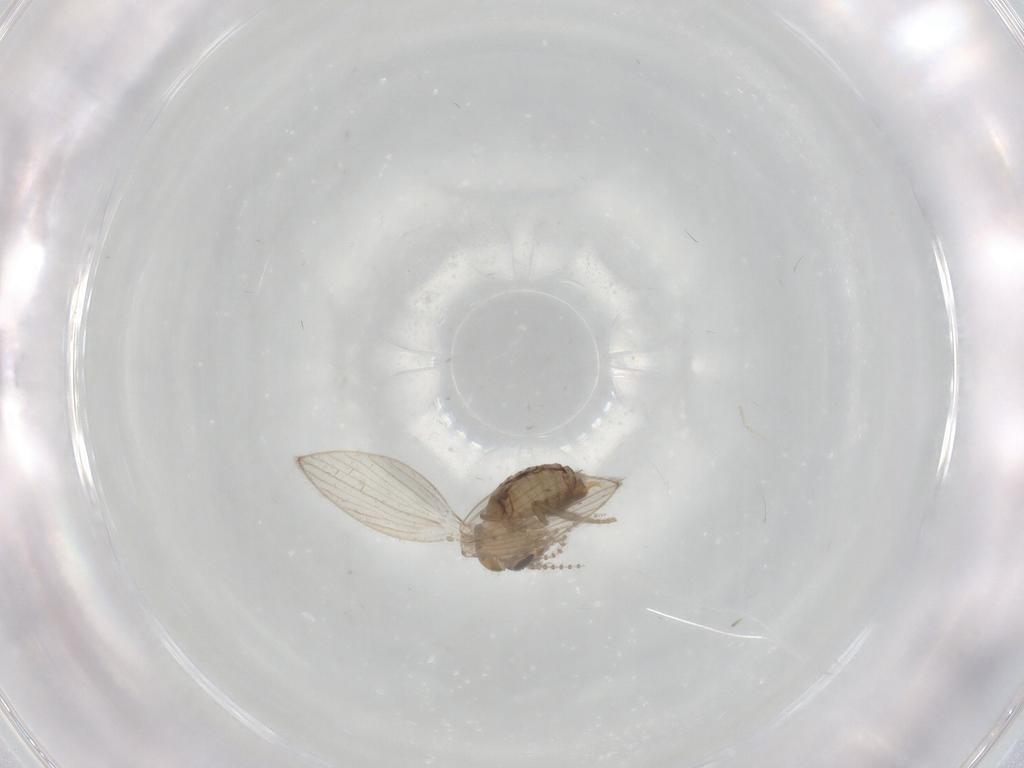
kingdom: Animalia
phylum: Arthropoda
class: Insecta
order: Diptera
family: Psychodidae
